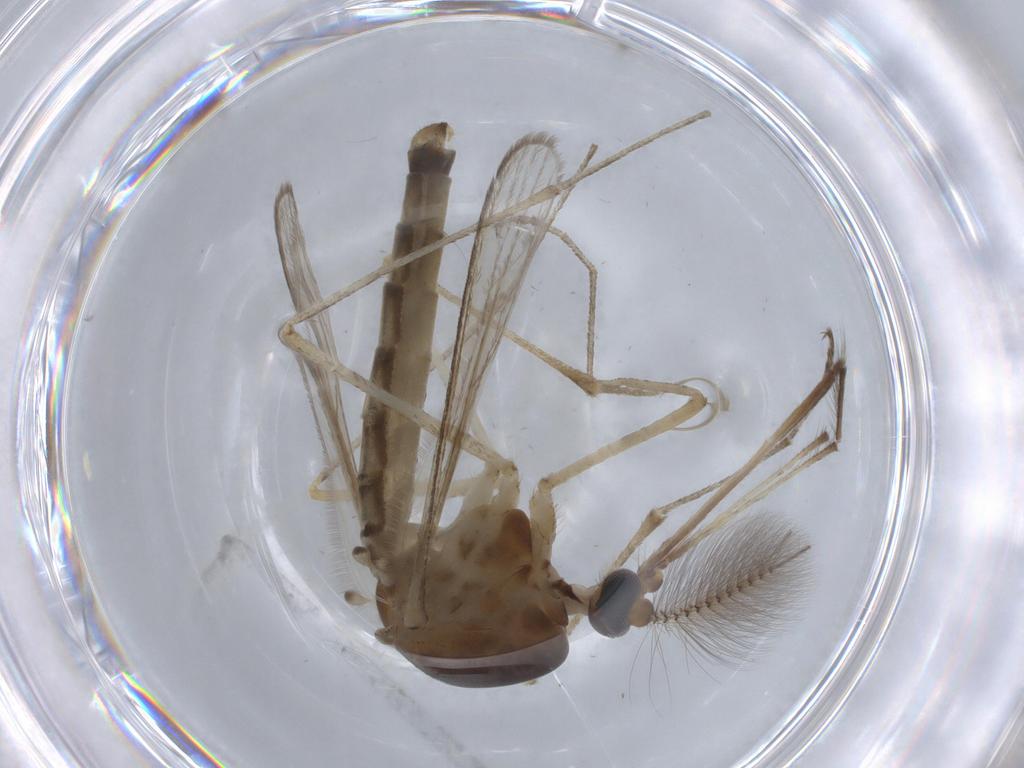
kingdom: Animalia
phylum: Arthropoda
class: Insecta
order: Diptera
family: Culicidae
